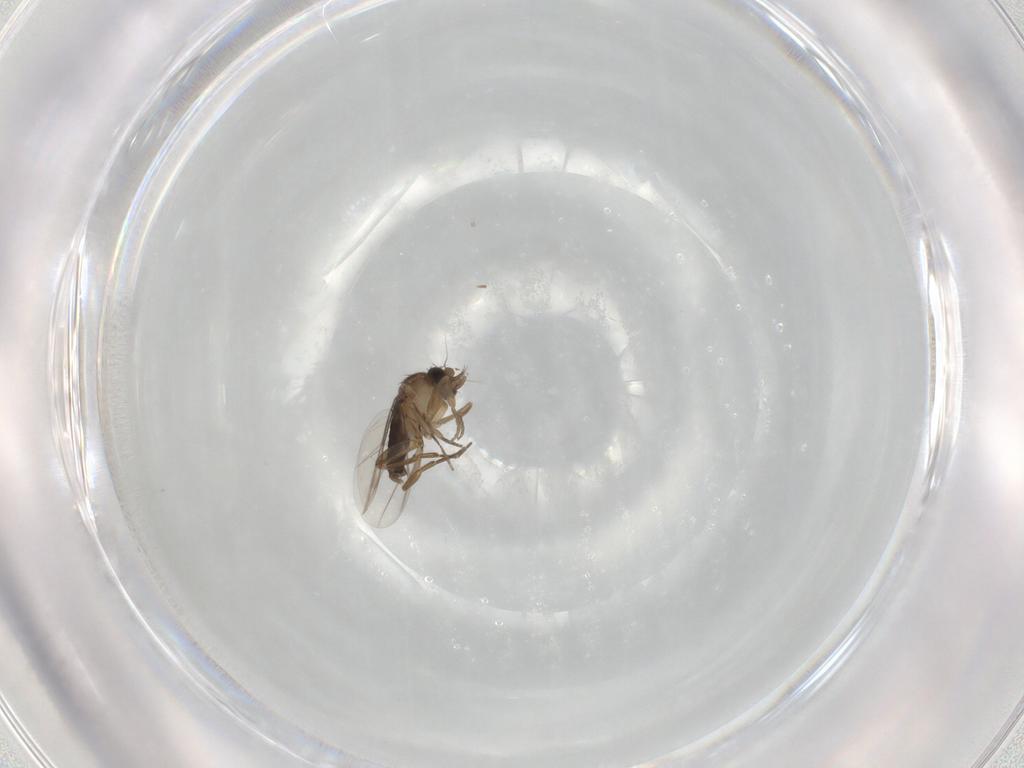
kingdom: Animalia
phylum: Arthropoda
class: Insecta
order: Diptera
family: Phoridae
